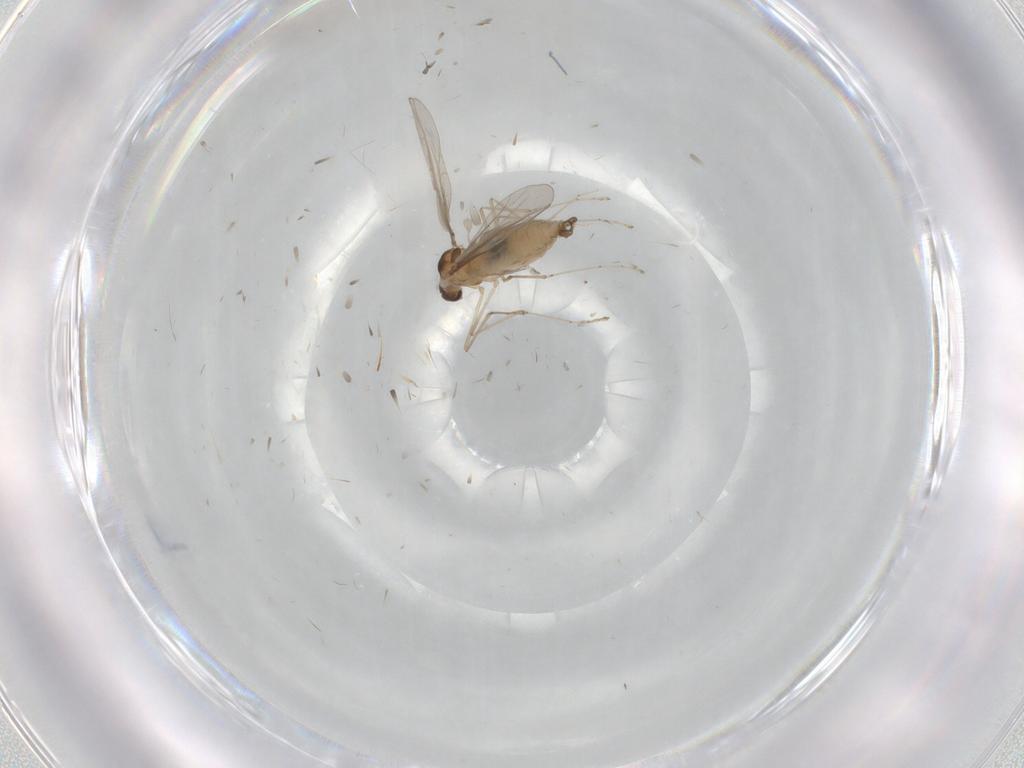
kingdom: Animalia
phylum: Arthropoda
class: Insecta
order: Diptera
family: Cecidomyiidae
